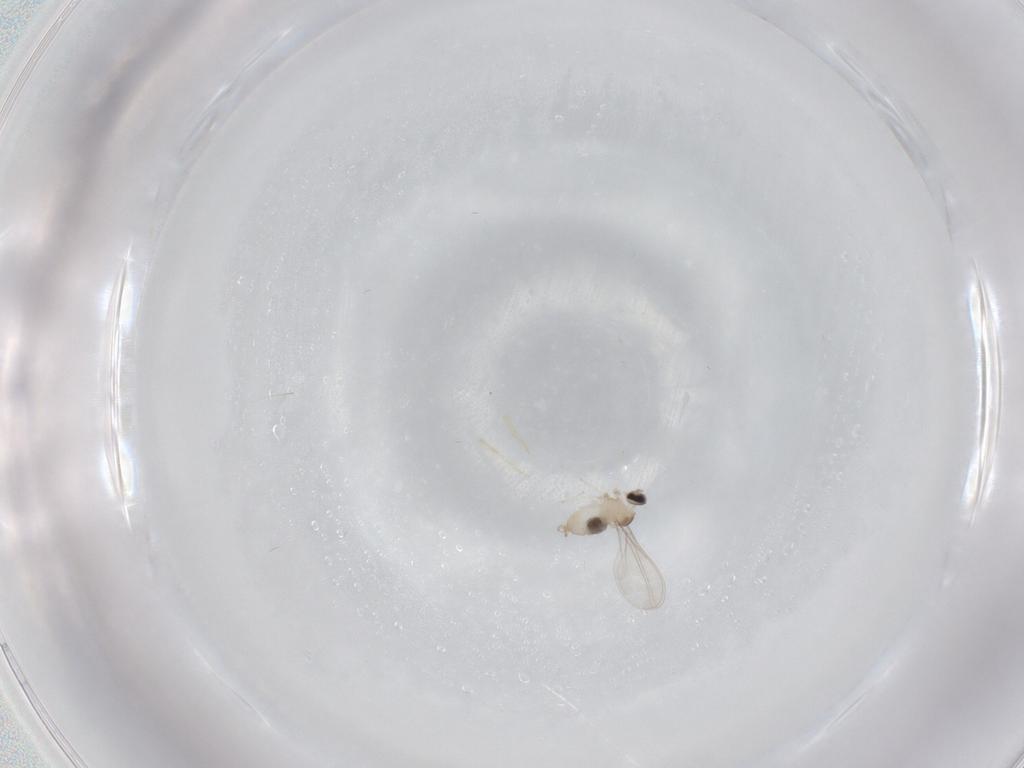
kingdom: Animalia
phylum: Arthropoda
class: Insecta
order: Diptera
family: Cecidomyiidae
